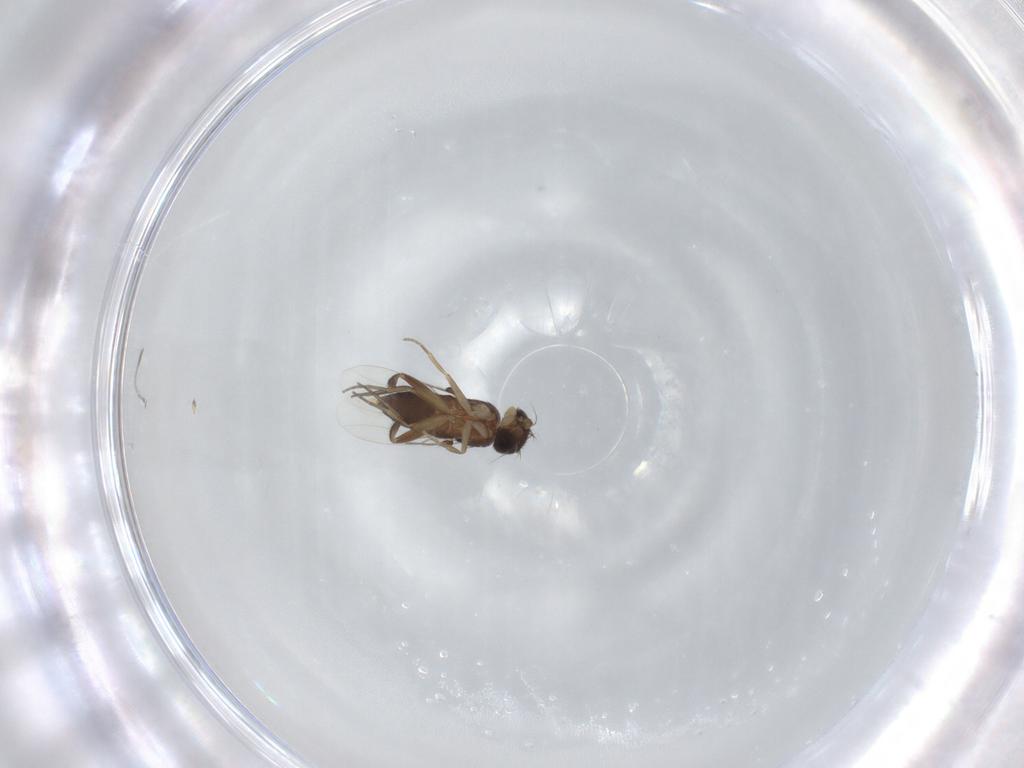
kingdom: Animalia
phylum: Arthropoda
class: Insecta
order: Diptera
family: Phoridae
